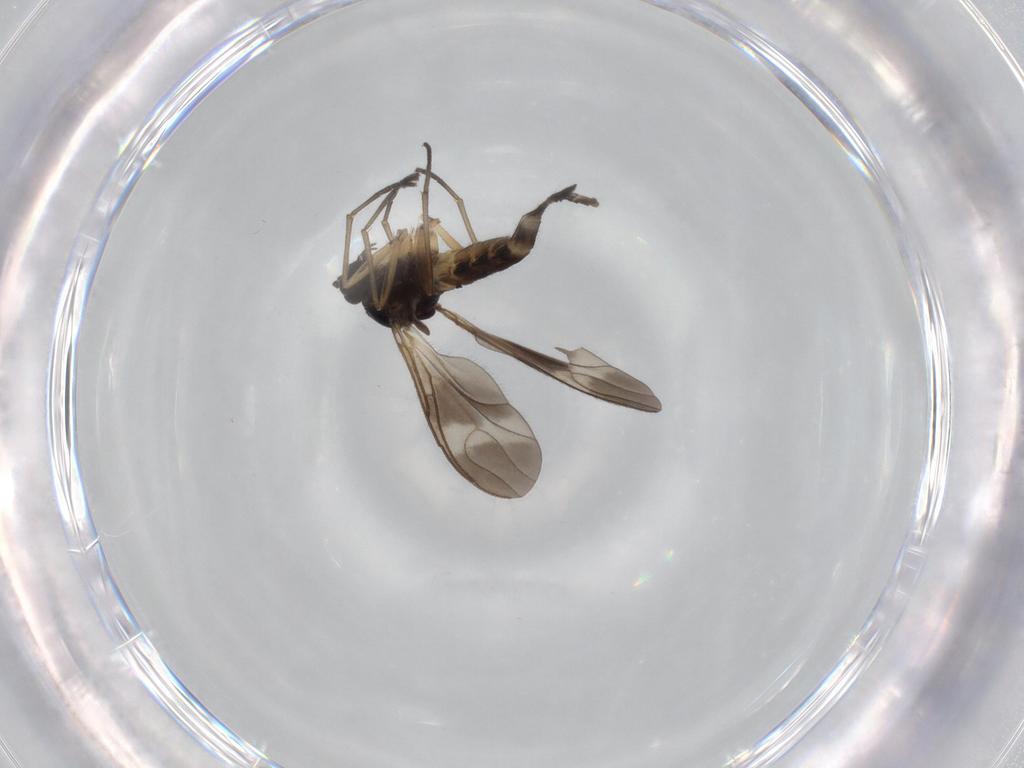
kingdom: Animalia
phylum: Arthropoda
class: Insecta
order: Diptera
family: Sciaridae
